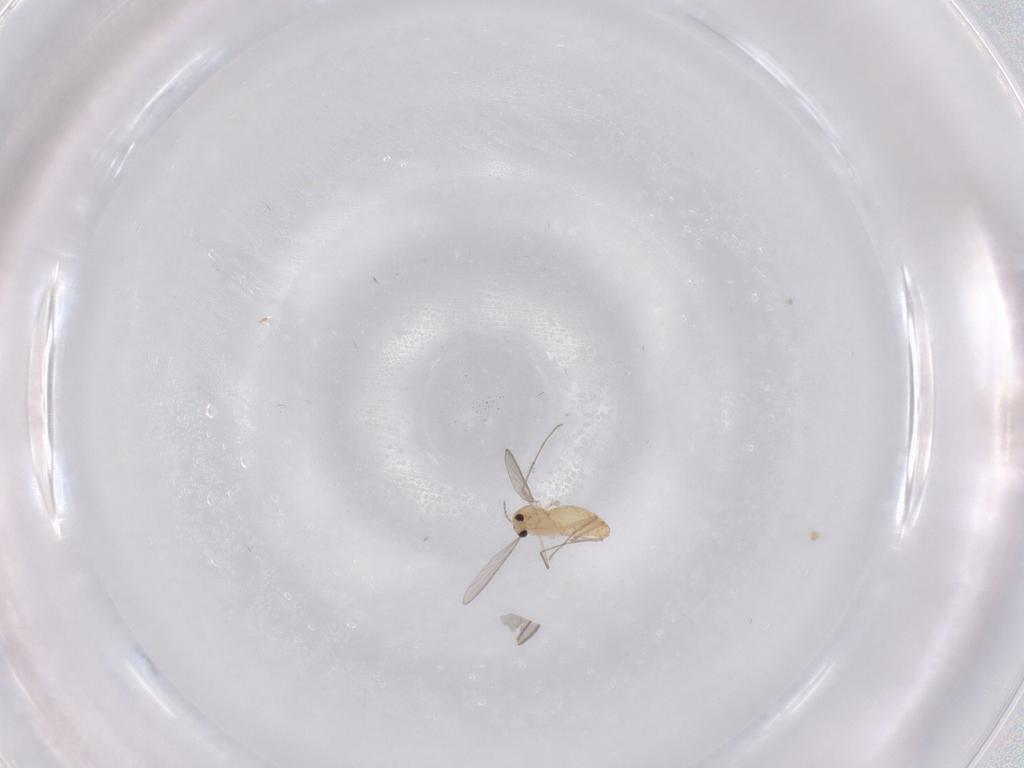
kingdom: Animalia
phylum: Arthropoda
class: Insecta
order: Diptera
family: Chironomidae
